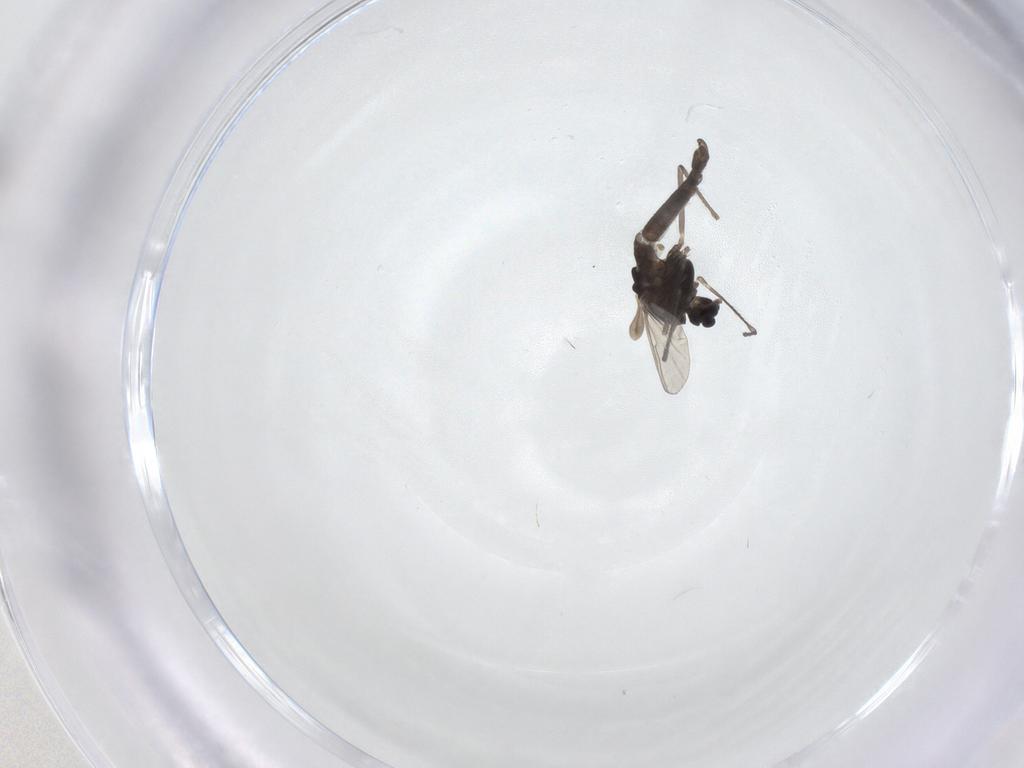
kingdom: Animalia
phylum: Arthropoda
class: Insecta
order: Diptera
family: Chironomidae
